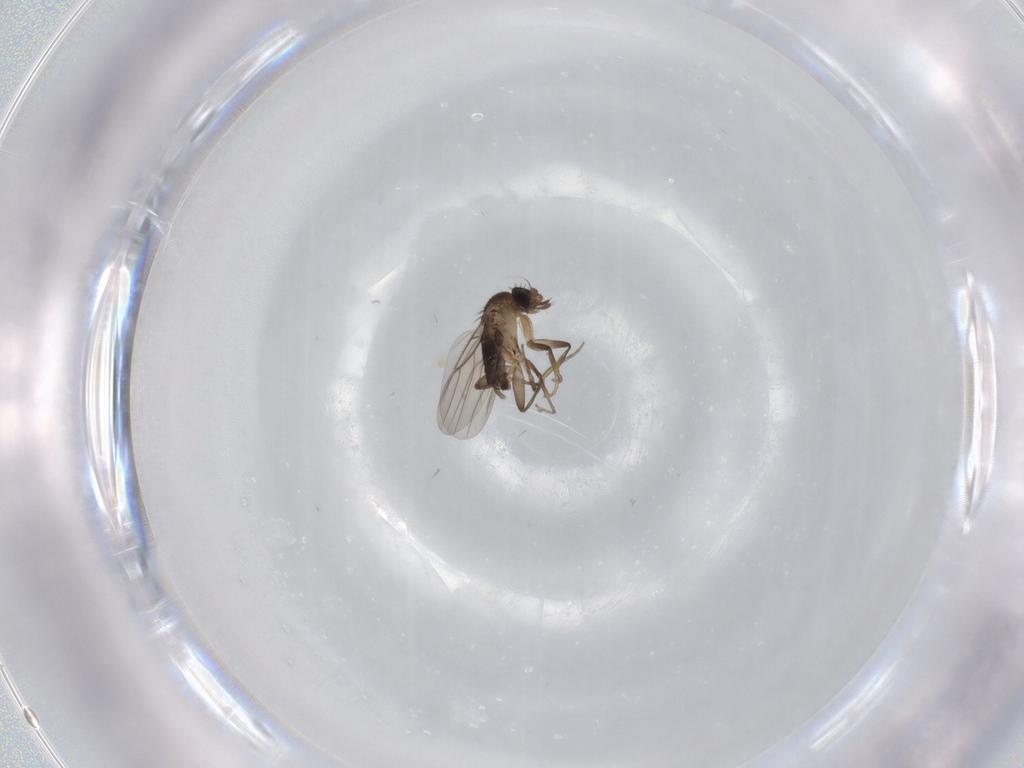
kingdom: Animalia
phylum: Arthropoda
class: Insecta
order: Diptera
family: Phoridae
